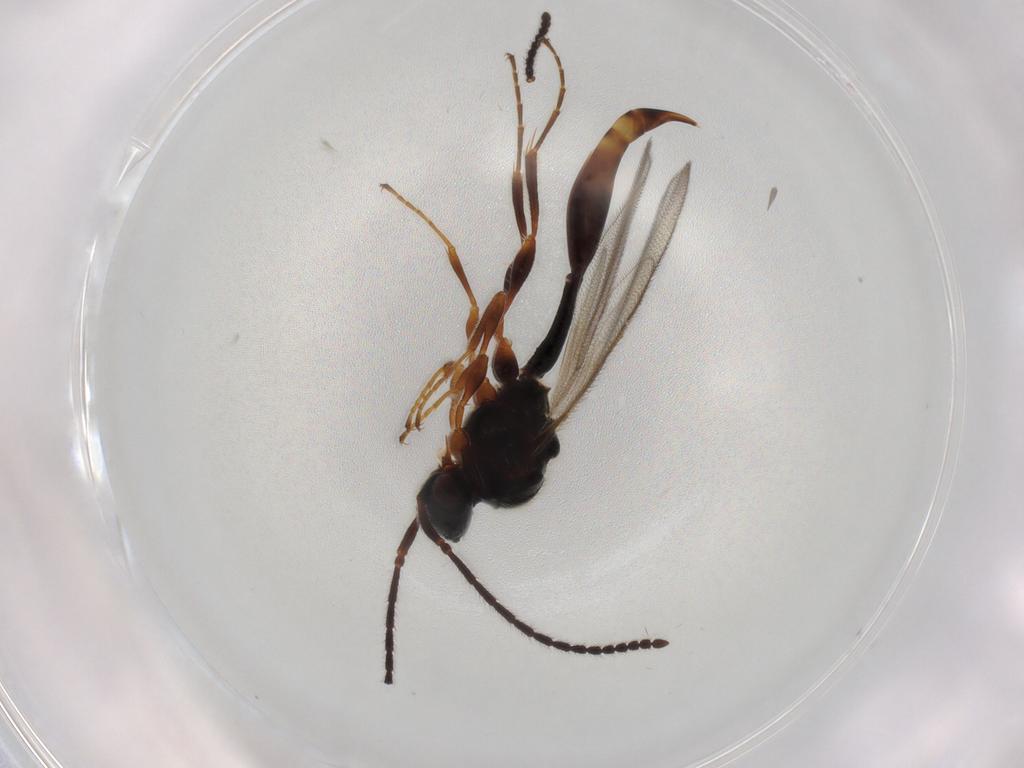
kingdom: Animalia
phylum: Arthropoda
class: Insecta
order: Hymenoptera
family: Diapriidae
